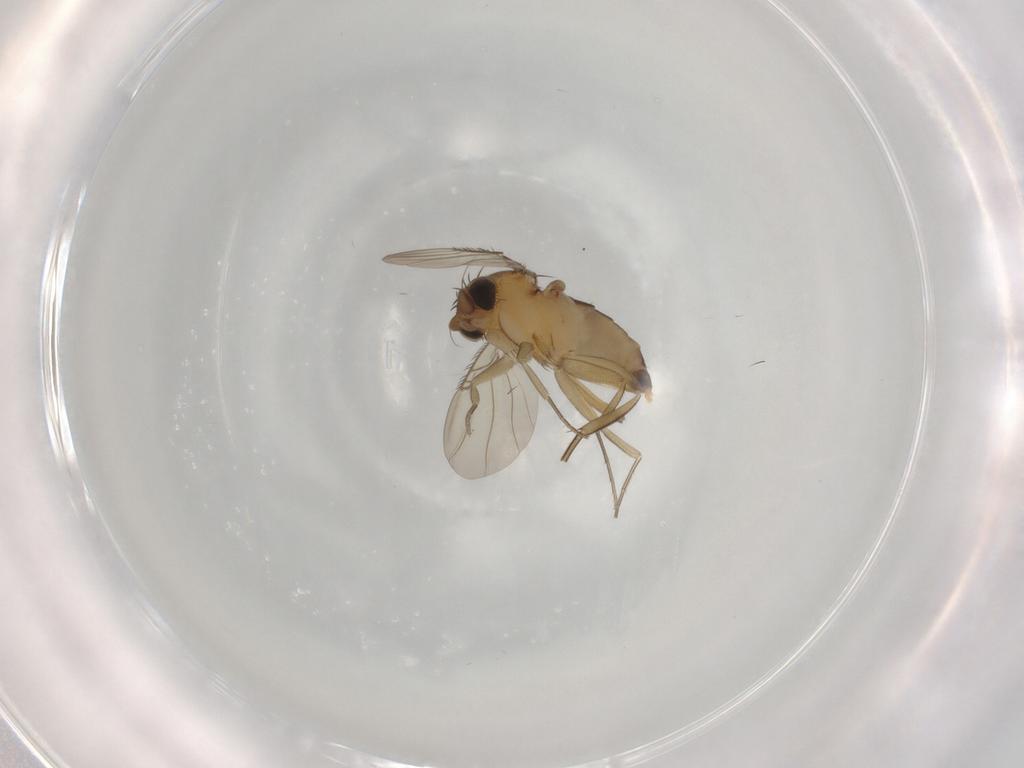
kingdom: Animalia
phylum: Arthropoda
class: Insecta
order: Diptera
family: Phoridae
